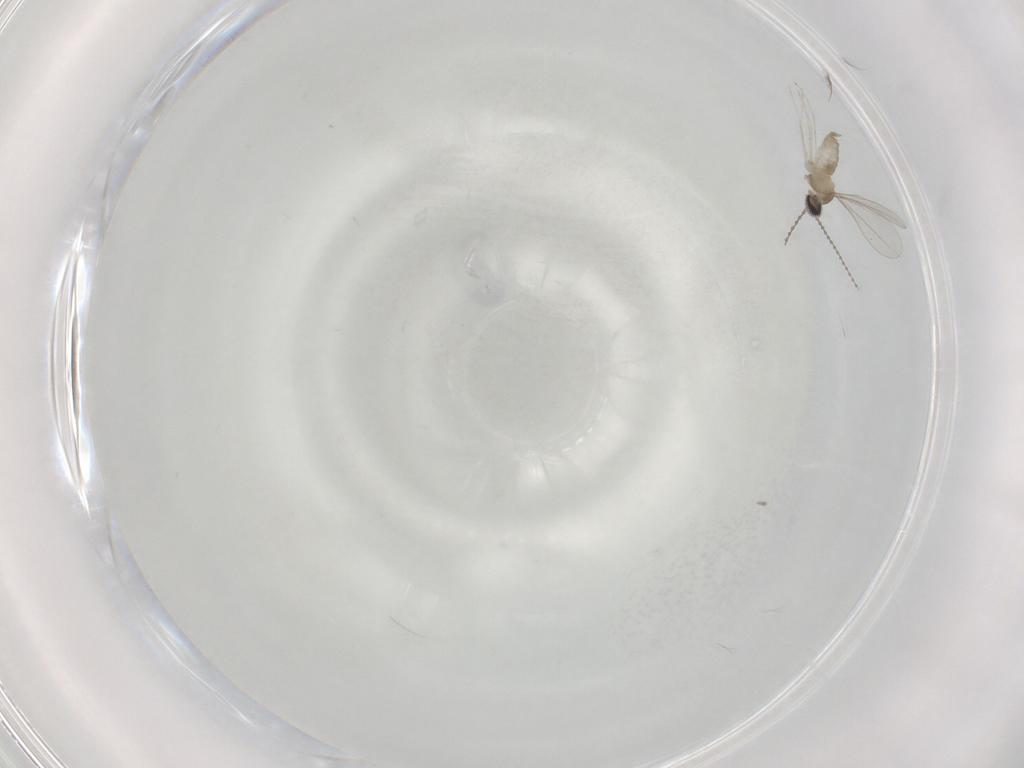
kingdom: Animalia
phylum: Arthropoda
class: Insecta
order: Diptera
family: Cecidomyiidae
